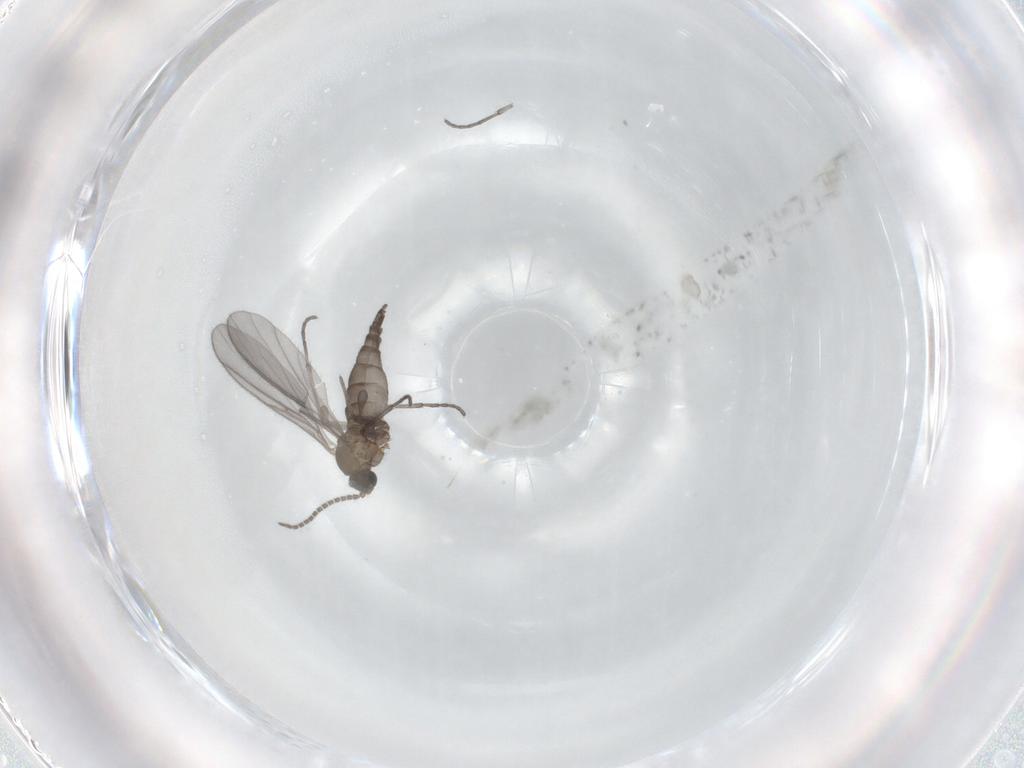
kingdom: Animalia
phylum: Arthropoda
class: Insecta
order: Diptera
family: Sciaridae
